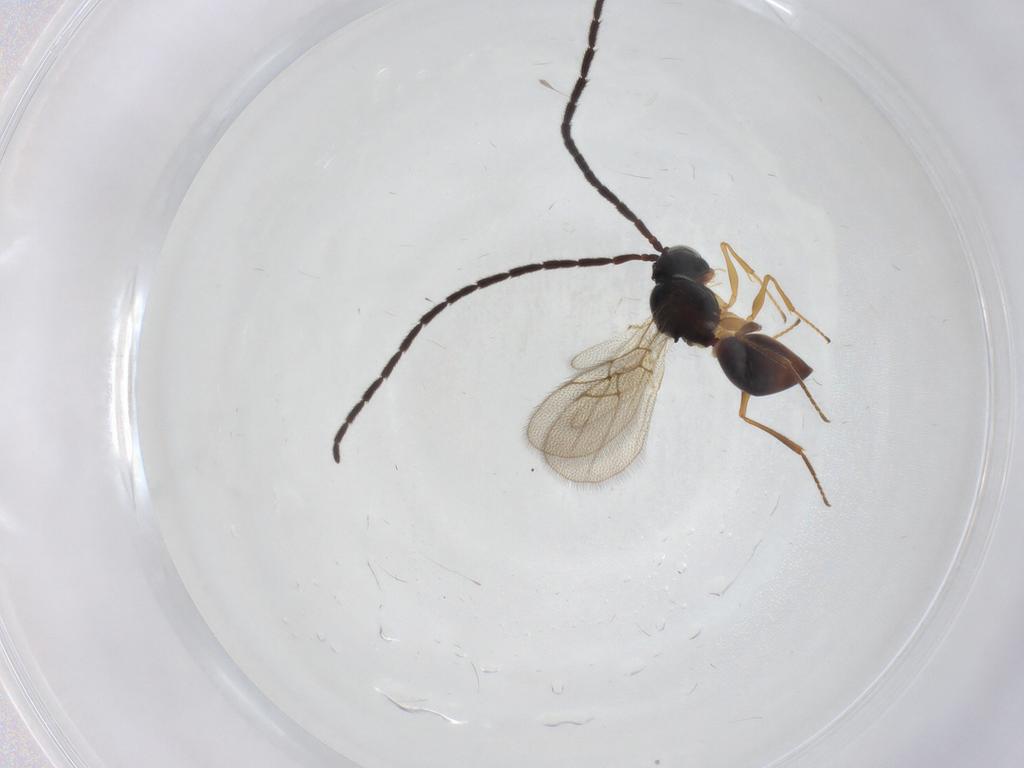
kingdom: Animalia
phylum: Arthropoda
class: Insecta
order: Hymenoptera
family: Figitidae
